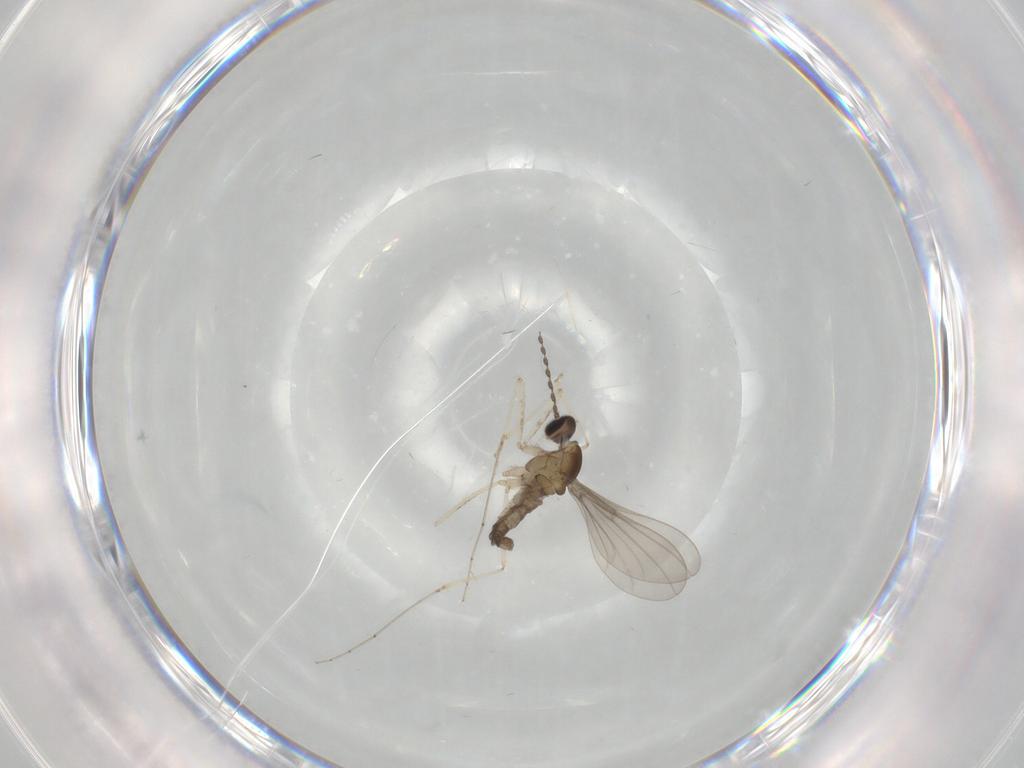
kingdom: Animalia
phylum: Arthropoda
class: Insecta
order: Diptera
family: Cecidomyiidae
